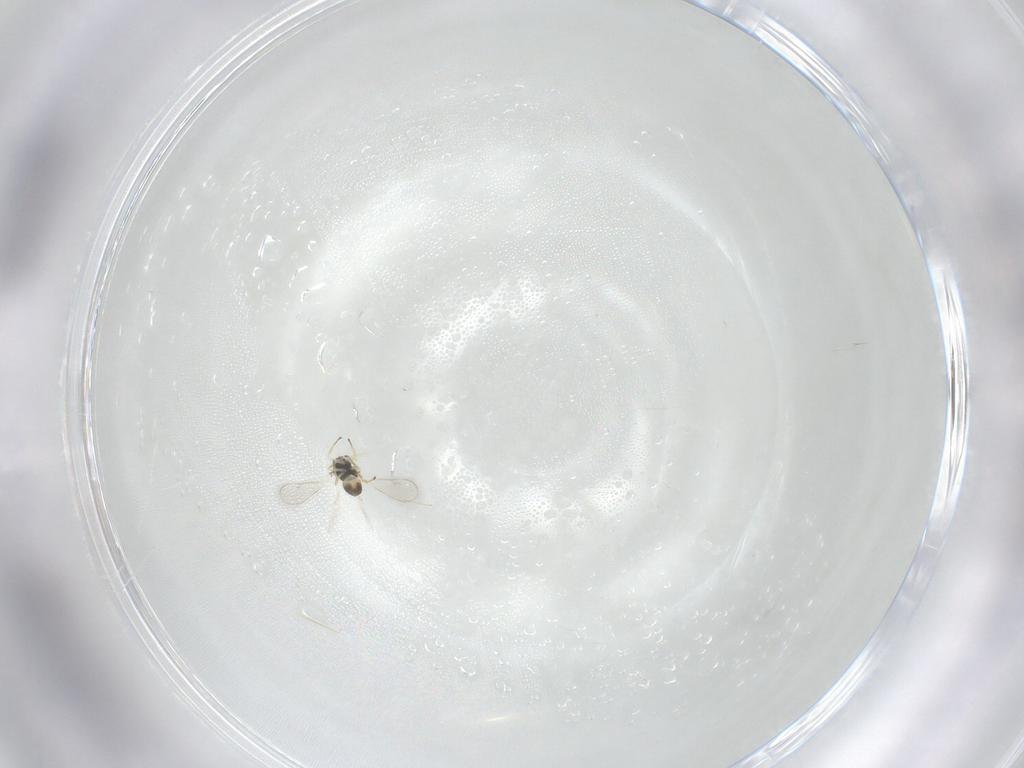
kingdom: Animalia
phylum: Arthropoda
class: Insecta
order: Hymenoptera
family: Eulophidae
